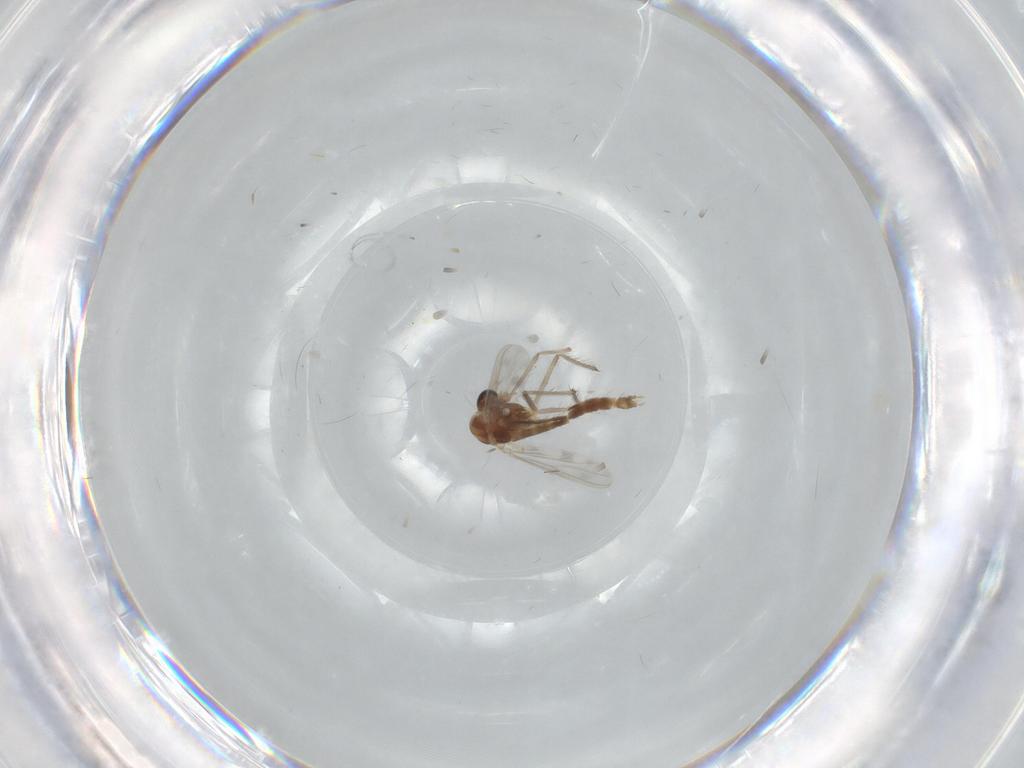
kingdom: Animalia
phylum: Arthropoda
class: Insecta
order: Diptera
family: Chironomidae
